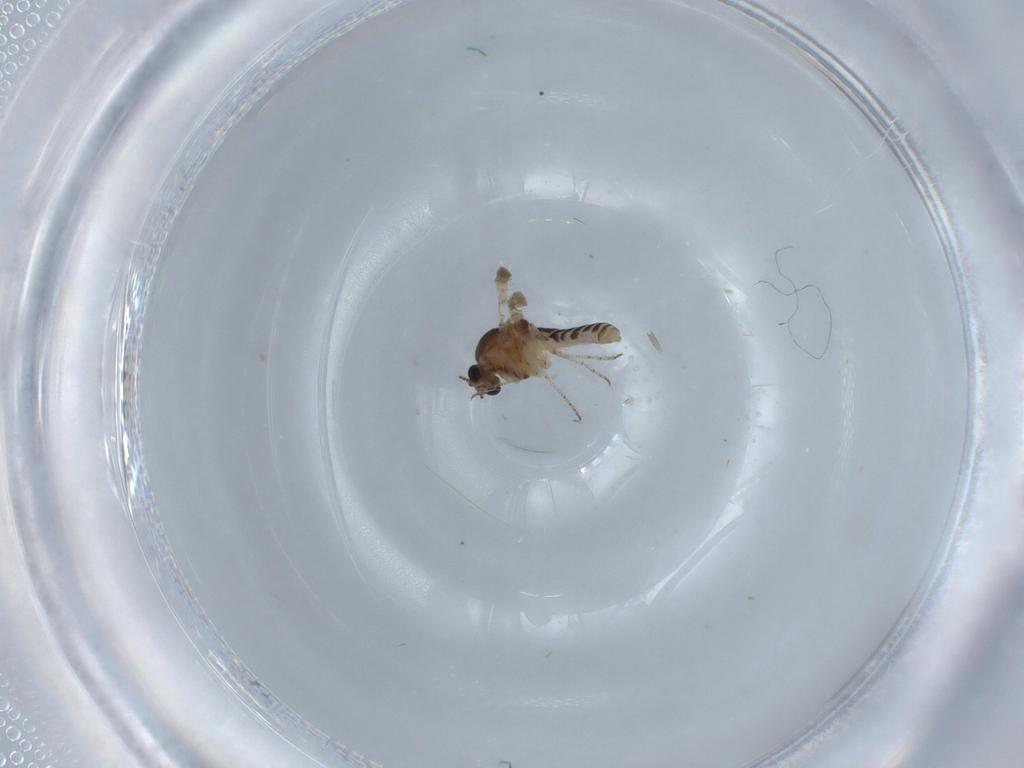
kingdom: Animalia
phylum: Arthropoda
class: Insecta
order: Diptera
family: Ceratopogonidae
